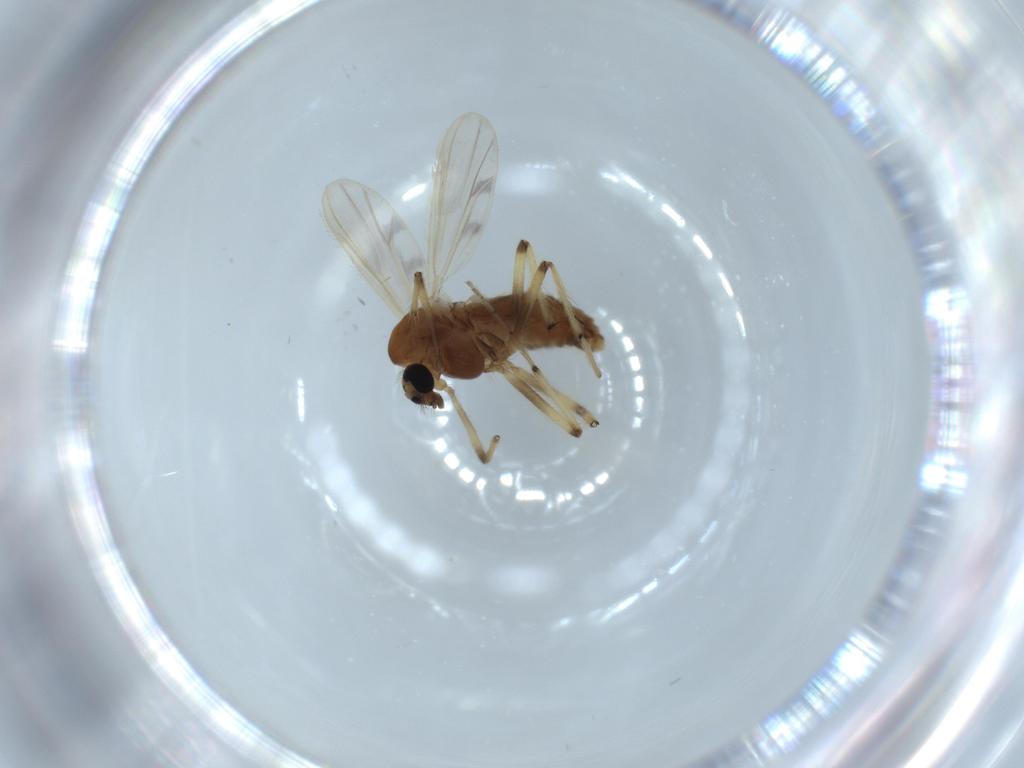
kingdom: Animalia
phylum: Arthropoda
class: Insecta
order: Diptera
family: Chironomidae
